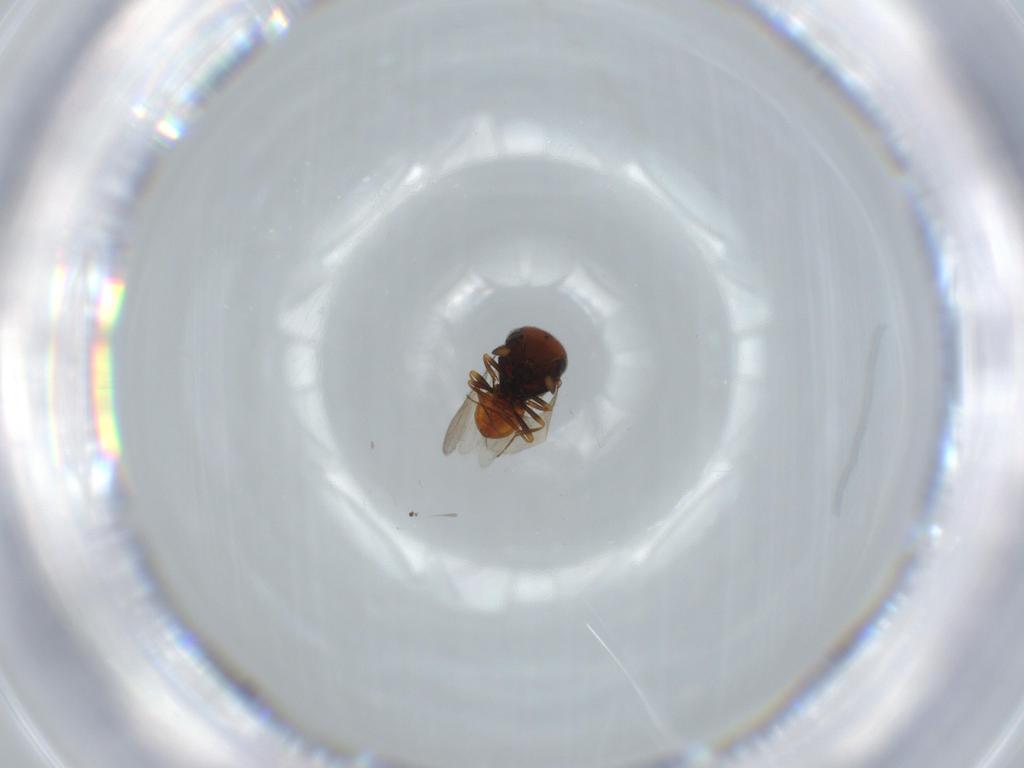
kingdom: Animalia
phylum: Arthropoda
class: Insecta
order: Hymenoptera
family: Scelionidae
